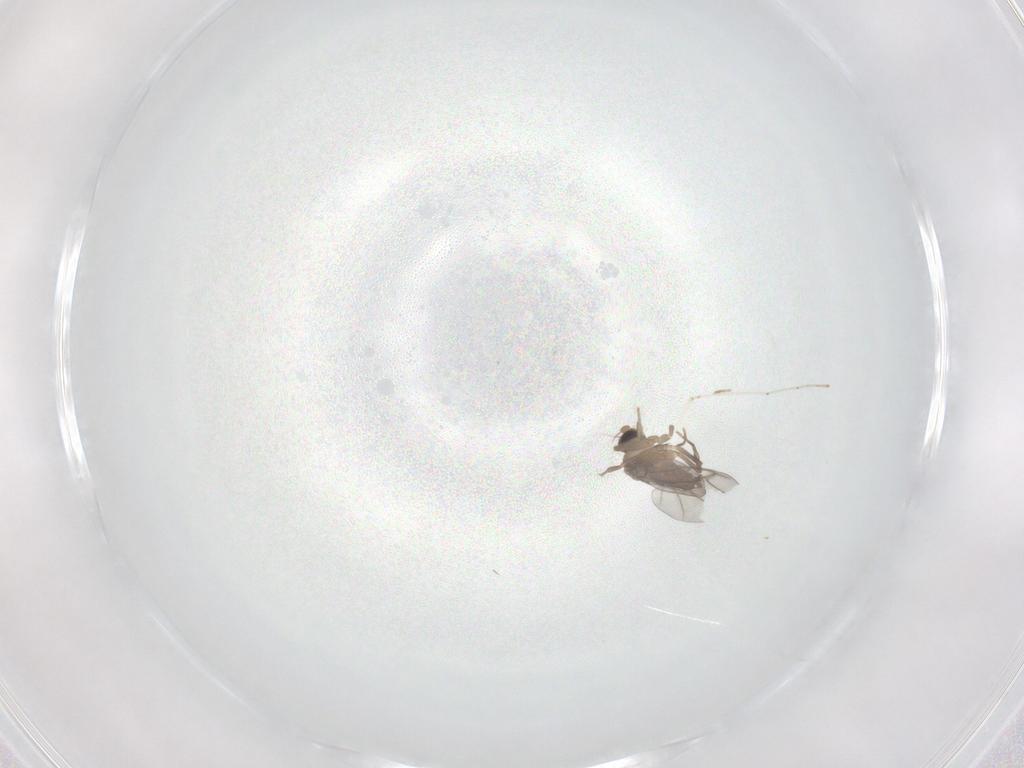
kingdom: Animalia
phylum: Arthropoda
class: Insecta
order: Diptera
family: Cecidomyiidae
